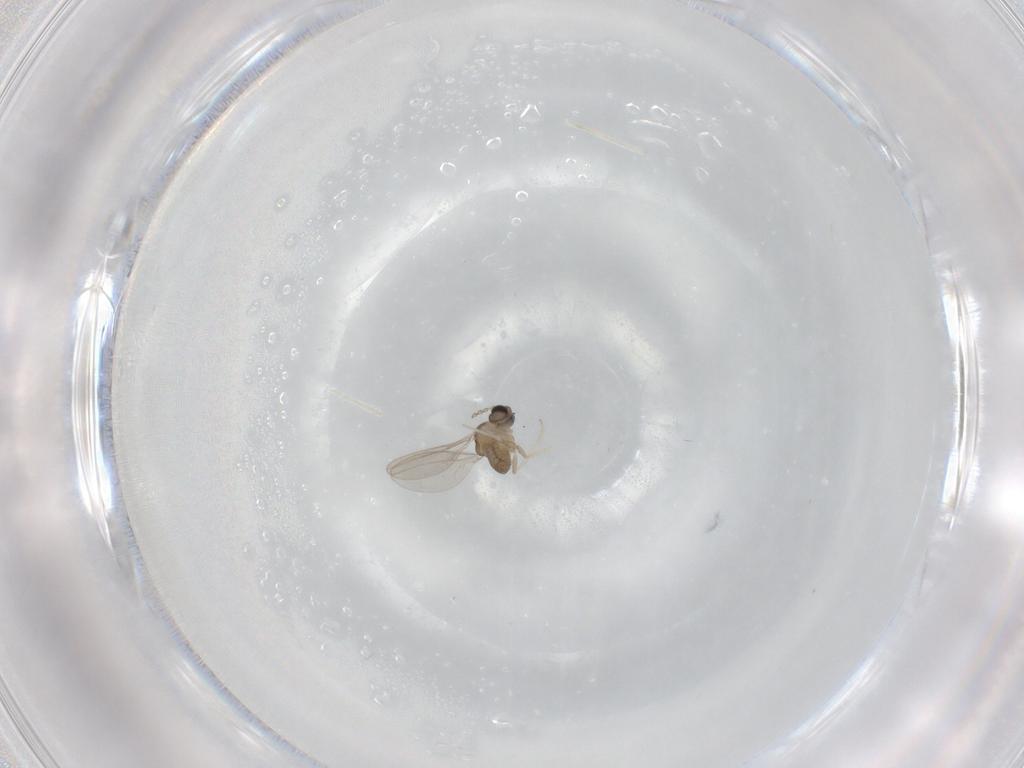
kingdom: Animalia
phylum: Arthropoda
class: Insecta
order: Diptera
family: Cecidomyiidae
